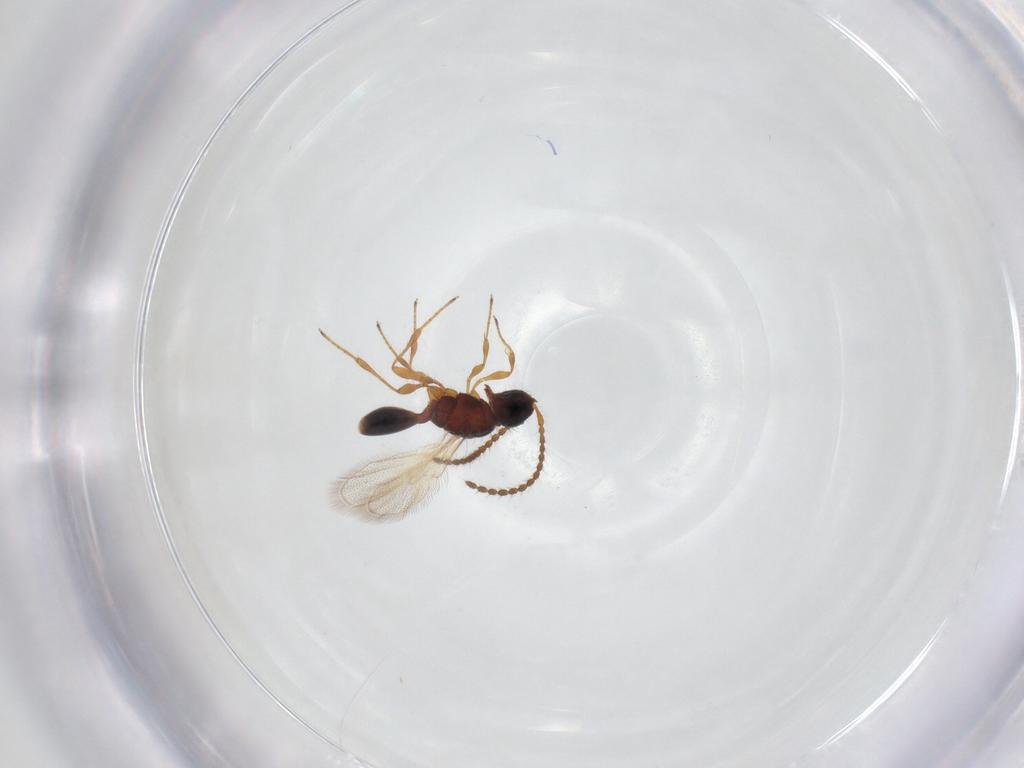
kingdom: Animalia
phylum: Arthropoda
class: Insecta
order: Hymenoptera
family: Diapriidae
